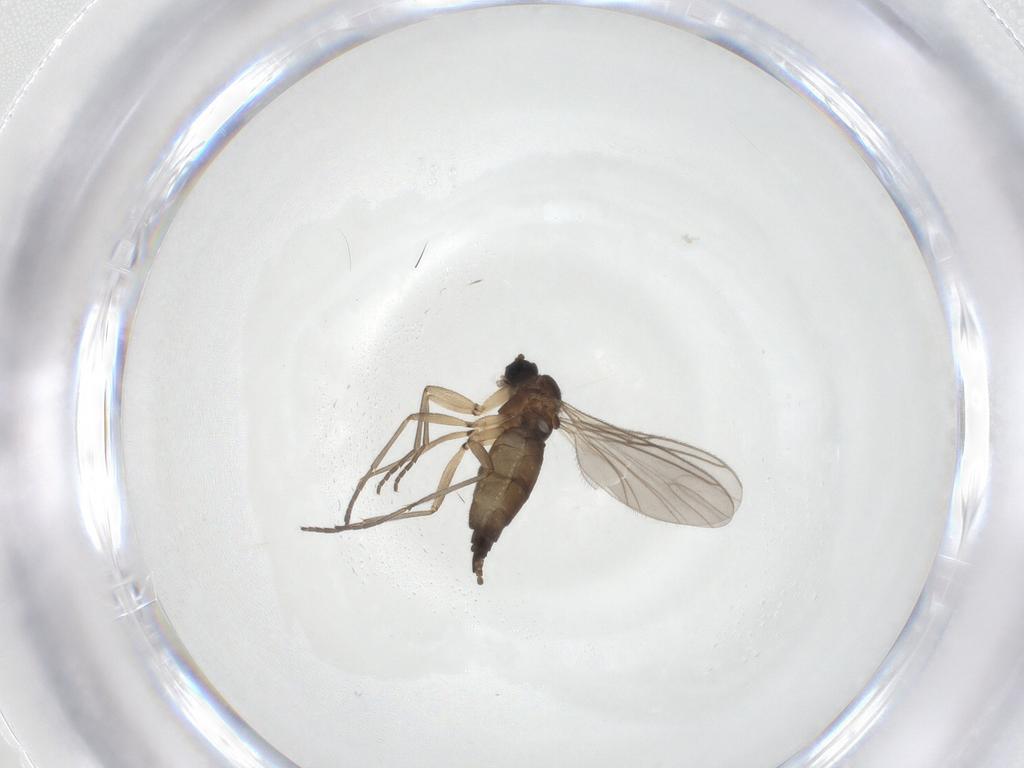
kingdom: Animalia
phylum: Arthropoda
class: Insecta
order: Diptera
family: Sciaridae
